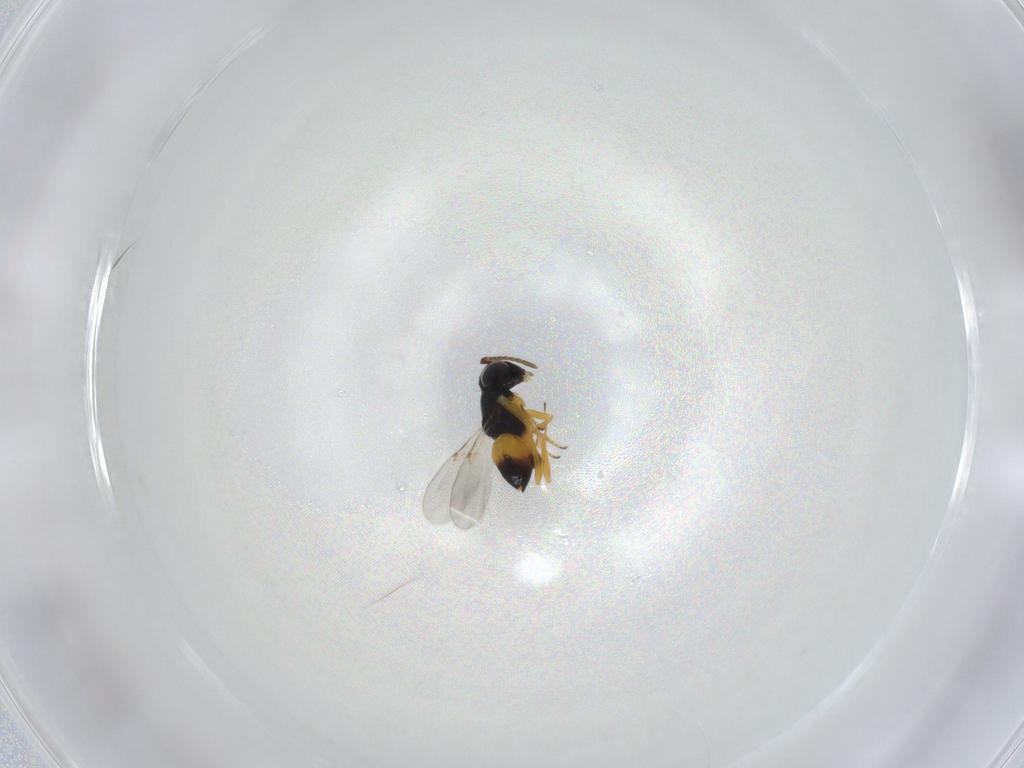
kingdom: Animalia
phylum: Arthropoda
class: Insecta
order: Hymenoptera
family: Encyrtidae
